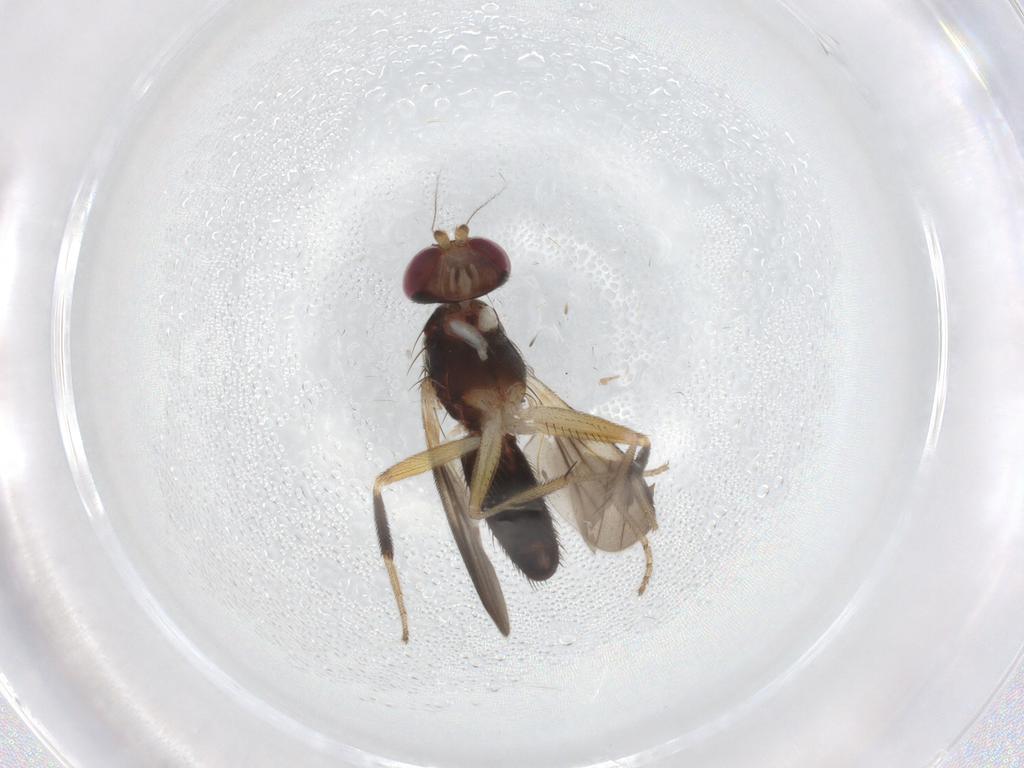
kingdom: Animalia
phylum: Arthropoda
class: Insecta
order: Diptera
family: Clusiidae
